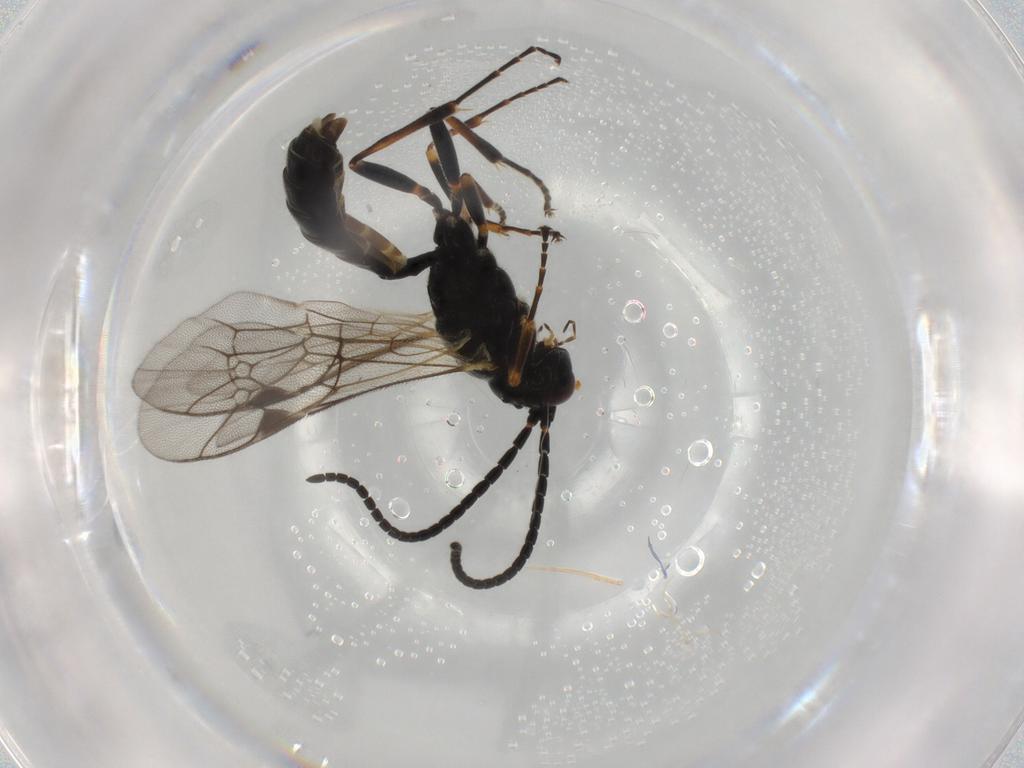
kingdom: Animalia
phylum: Arthropoda
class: Insecta
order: Hymenoptera
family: Ichneumonidae
